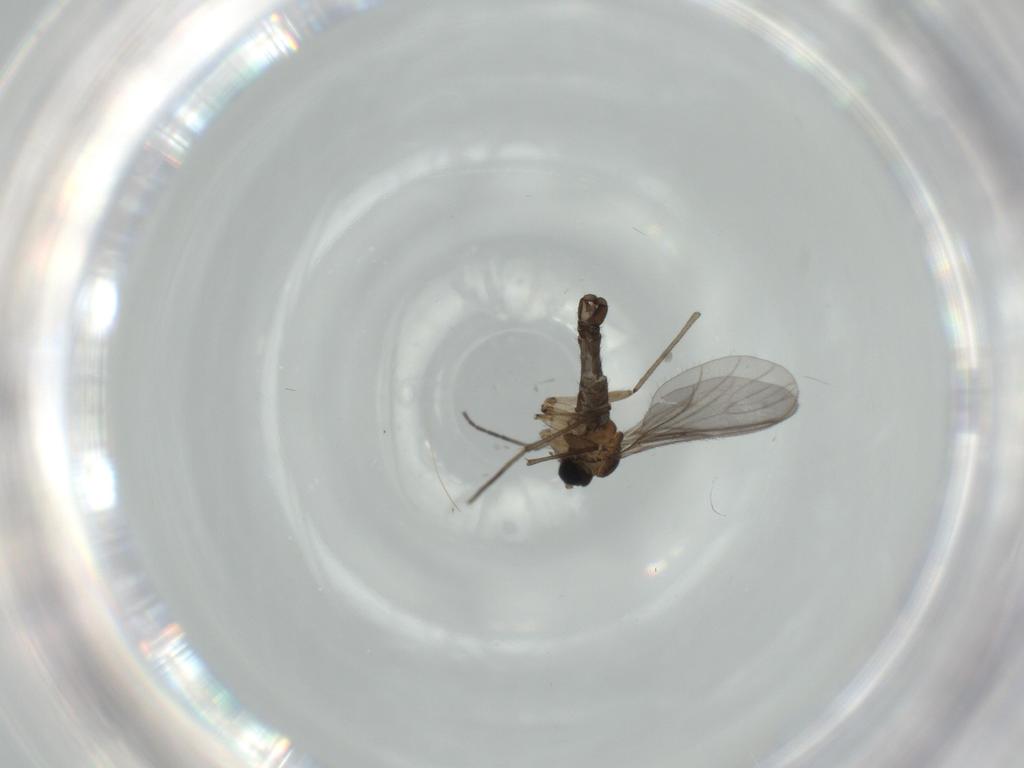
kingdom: Animalia
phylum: Arthropoda
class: Insecta
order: Diptera
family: Sciaridae
